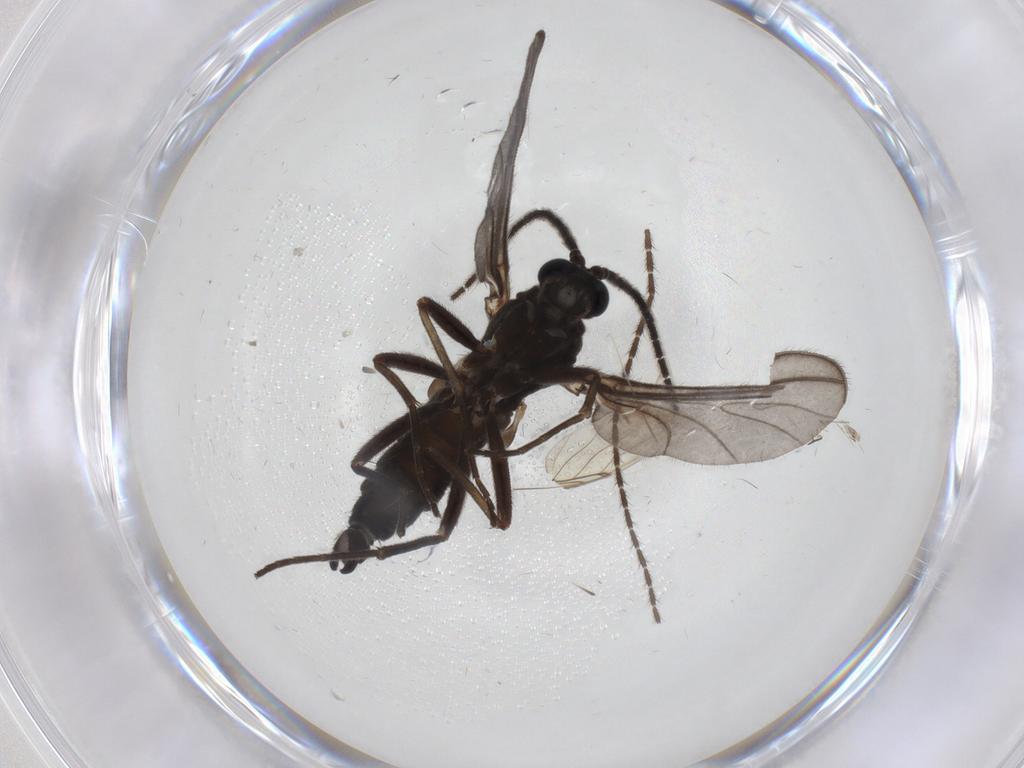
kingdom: Animalia
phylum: Arthropoda
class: Insecta
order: Diptera
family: Sciaridae
